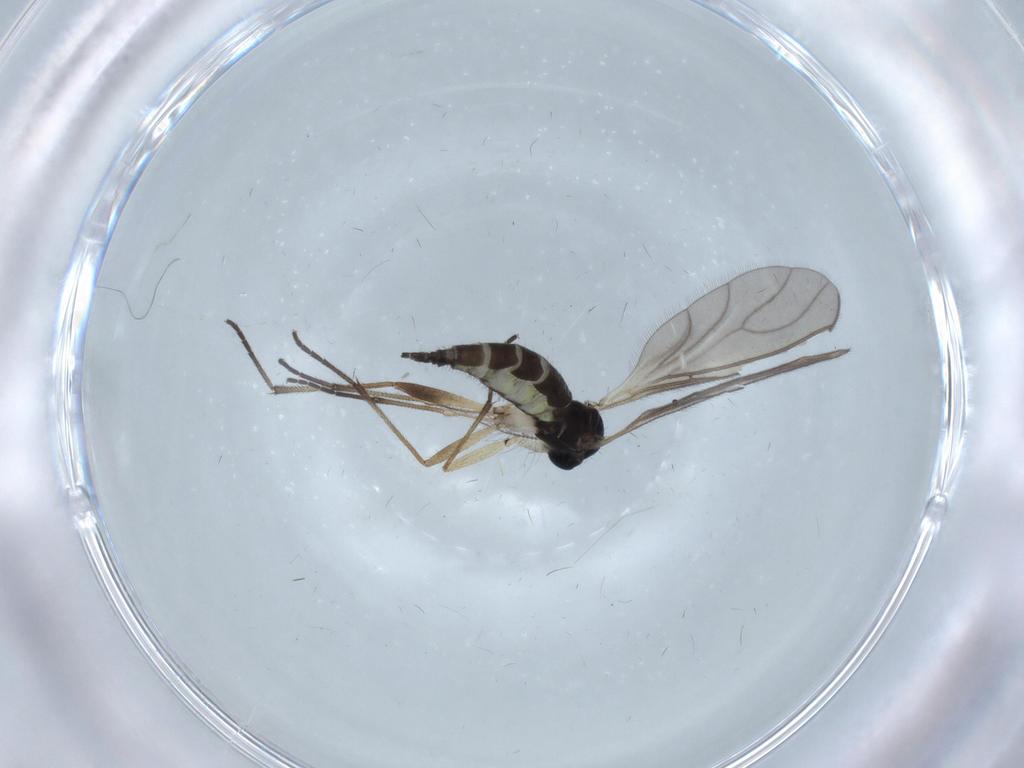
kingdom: Animalia
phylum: Arthropoda
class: Insecta
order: Diptera
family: Sciaridae
